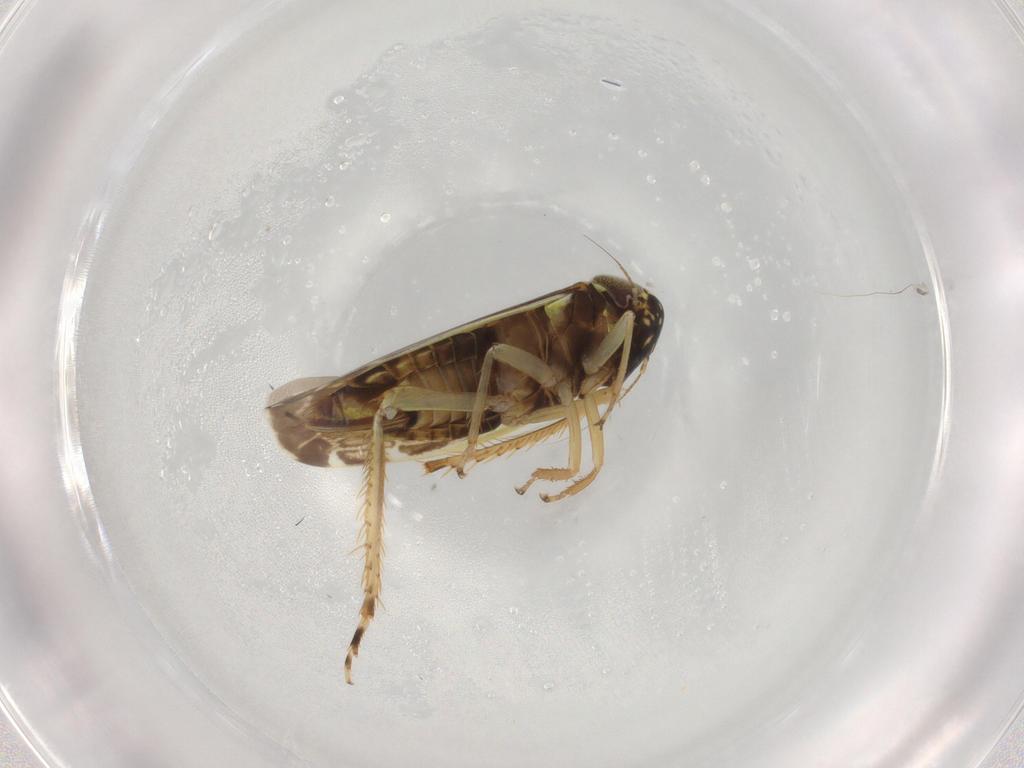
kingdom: Animalia
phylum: Arthropoda
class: Insecta
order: Hemiptera
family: Cicadellidae
